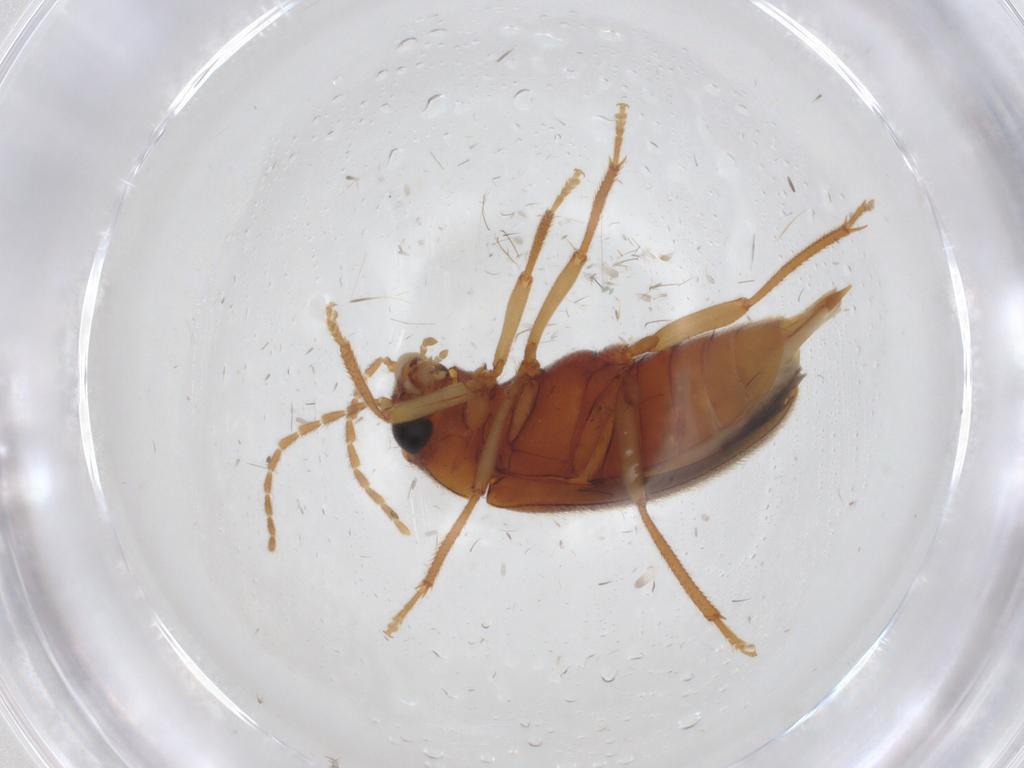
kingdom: Animalia
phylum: Arthropoda
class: Insecta
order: Coleoptera
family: Ptilodactylidae
